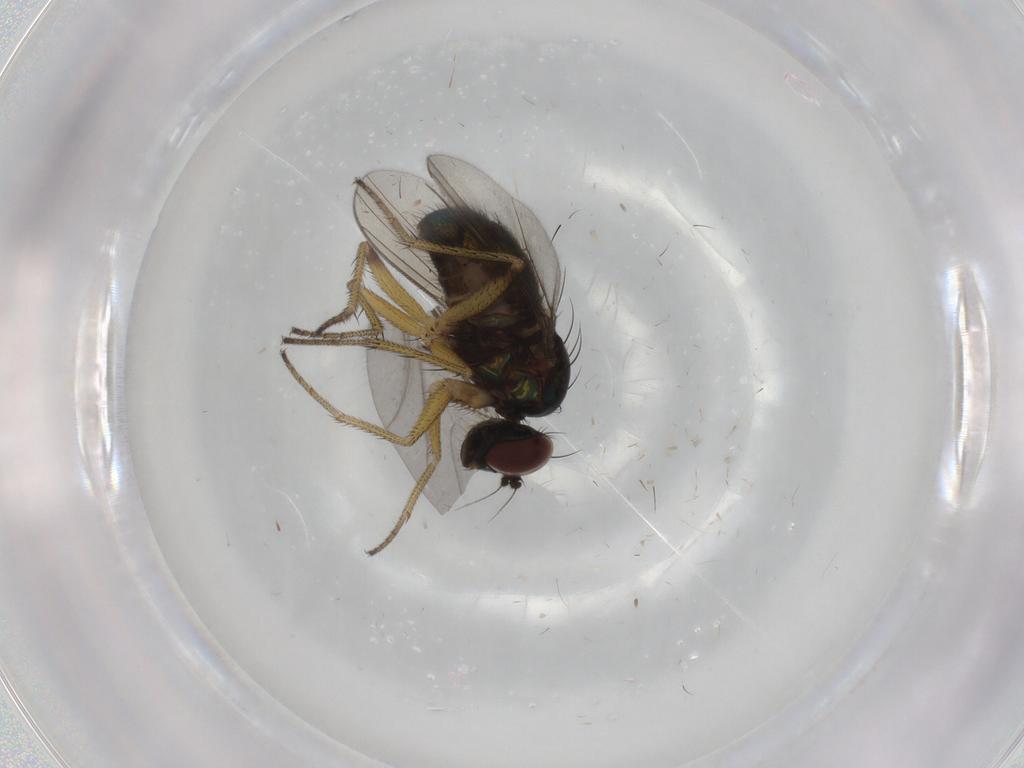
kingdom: Animalia
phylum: Arthropoda
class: Insecta
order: Diptera
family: Dolichopodidae
